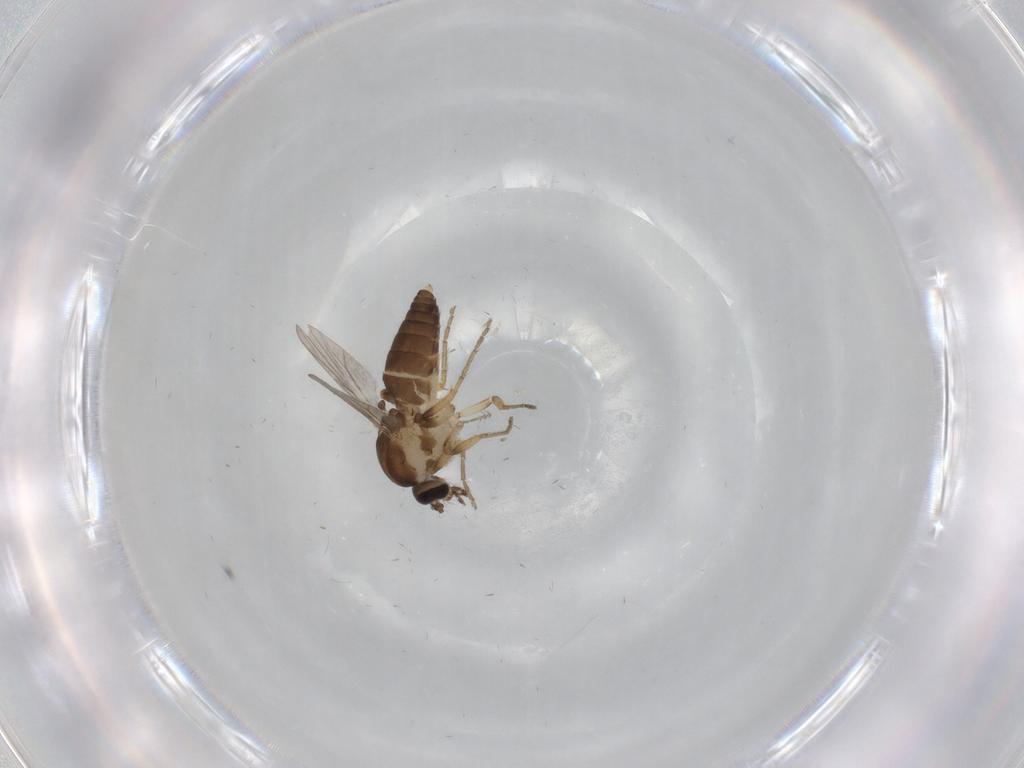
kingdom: Animalia
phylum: Arthropoda
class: Insecta
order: Diptera
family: Ceratopogonidae
